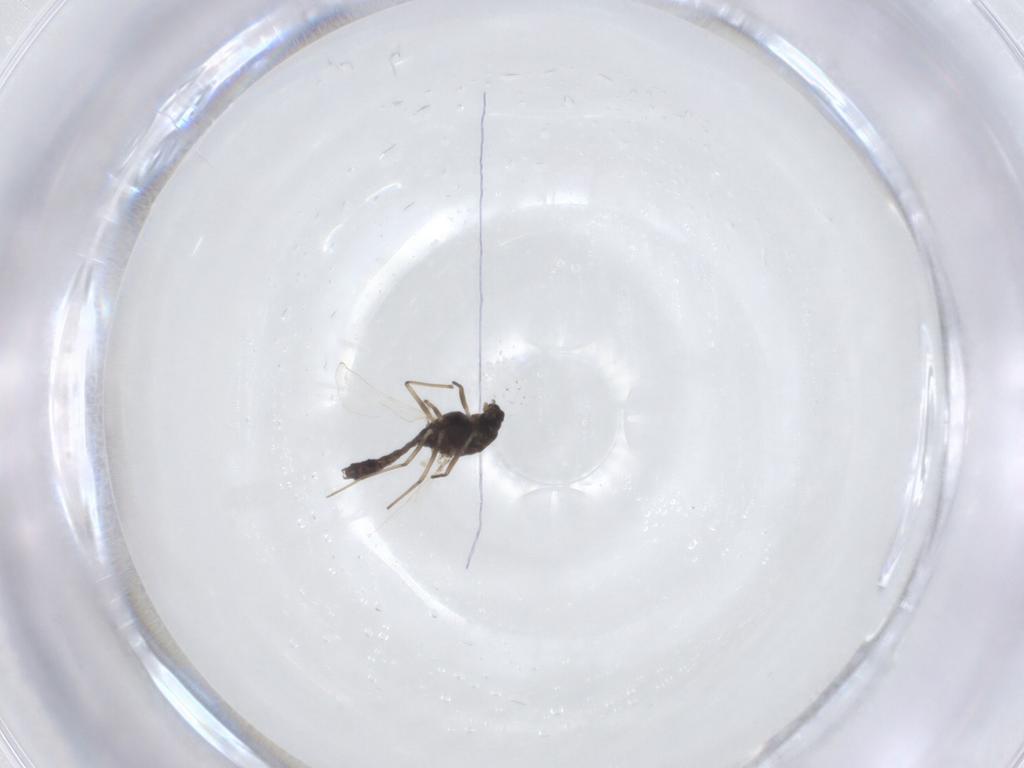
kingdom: Animalia
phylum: Arthropoda
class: Insecta
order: Diptera
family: Chironomidae
